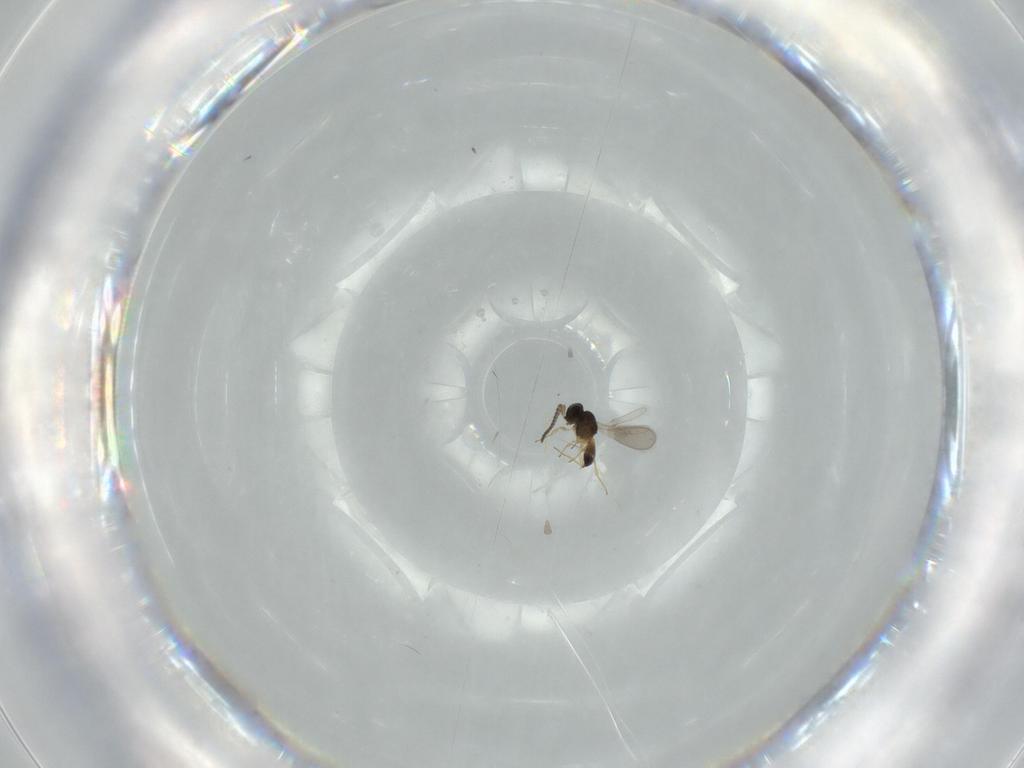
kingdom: Animalia
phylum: Arthropoda
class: Insecta
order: Hymenoptera
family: Scelionidae
